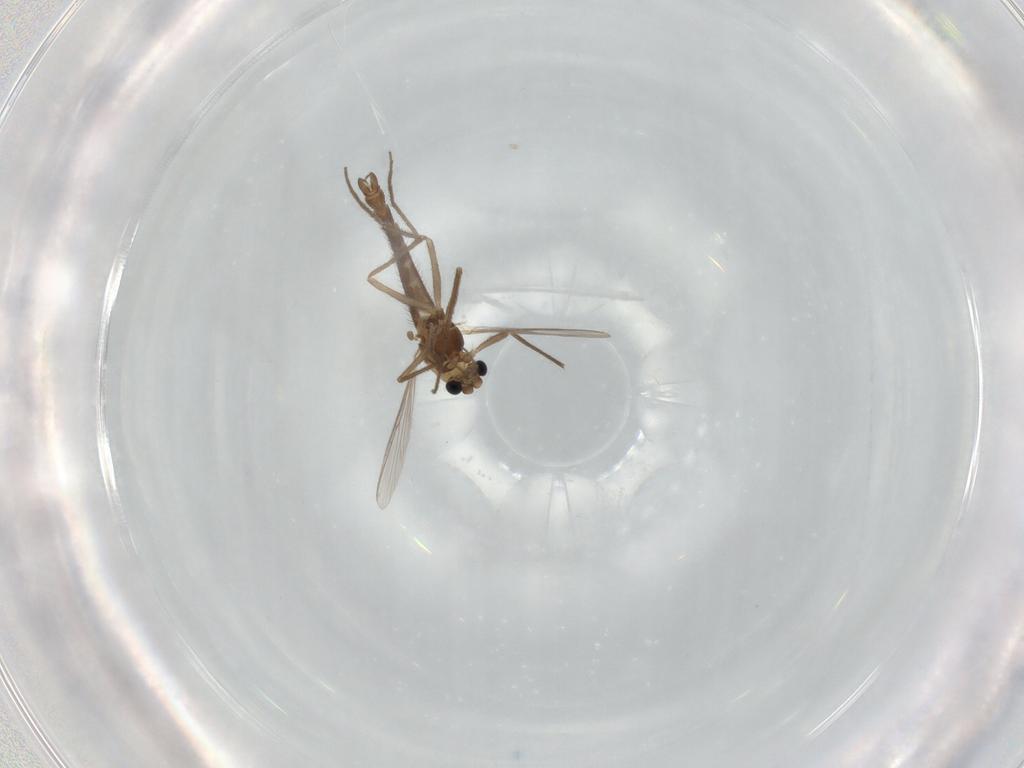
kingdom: Animalia
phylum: Arthropoda
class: Insecta
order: Diptera
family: Chironomidae
